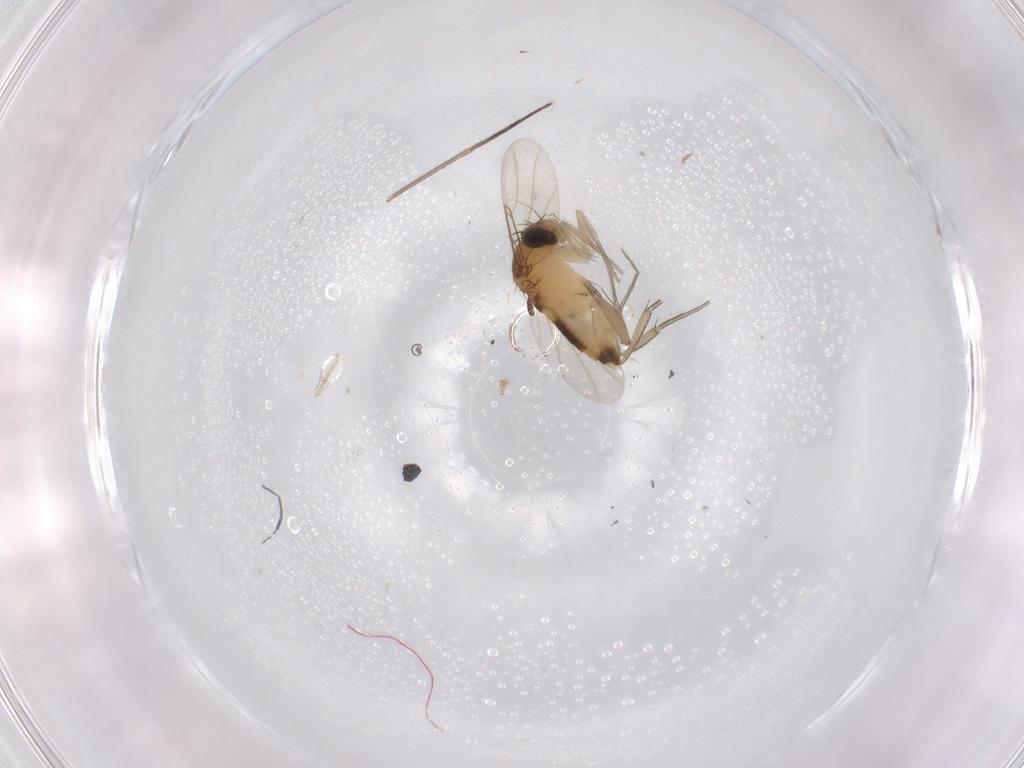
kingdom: Animalia
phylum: Arthropoda
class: Insecta
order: Diptera
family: Phoridae
